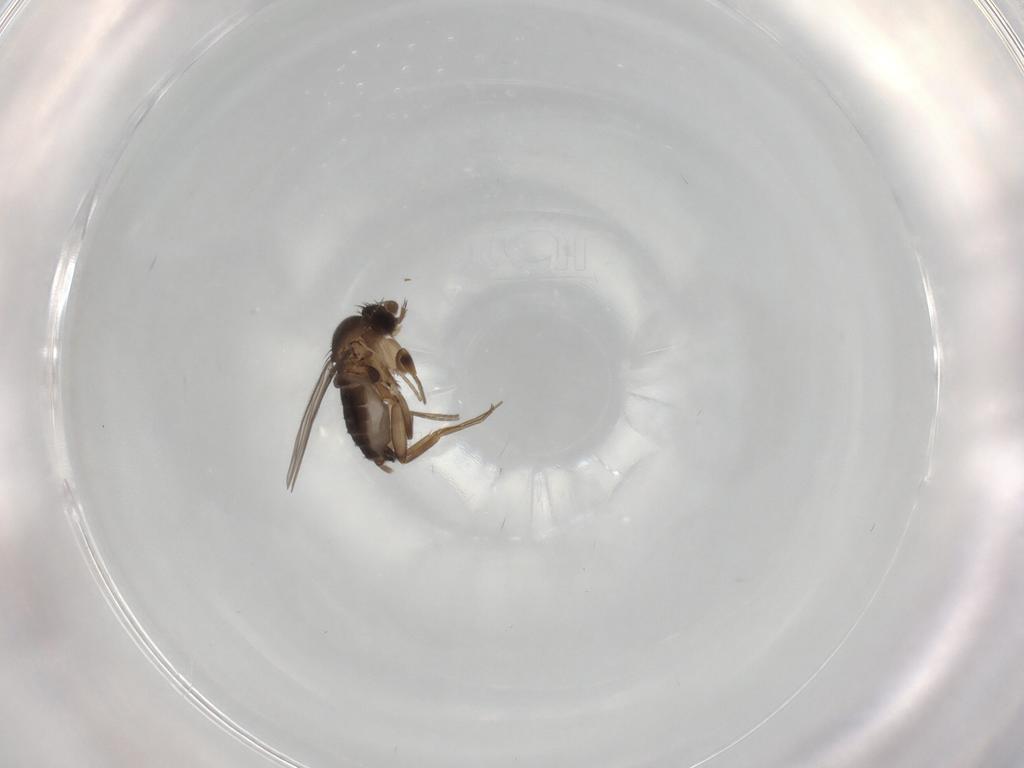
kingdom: Animalia
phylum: Arthropoda
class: Insecta
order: Diptera
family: Phoridae
